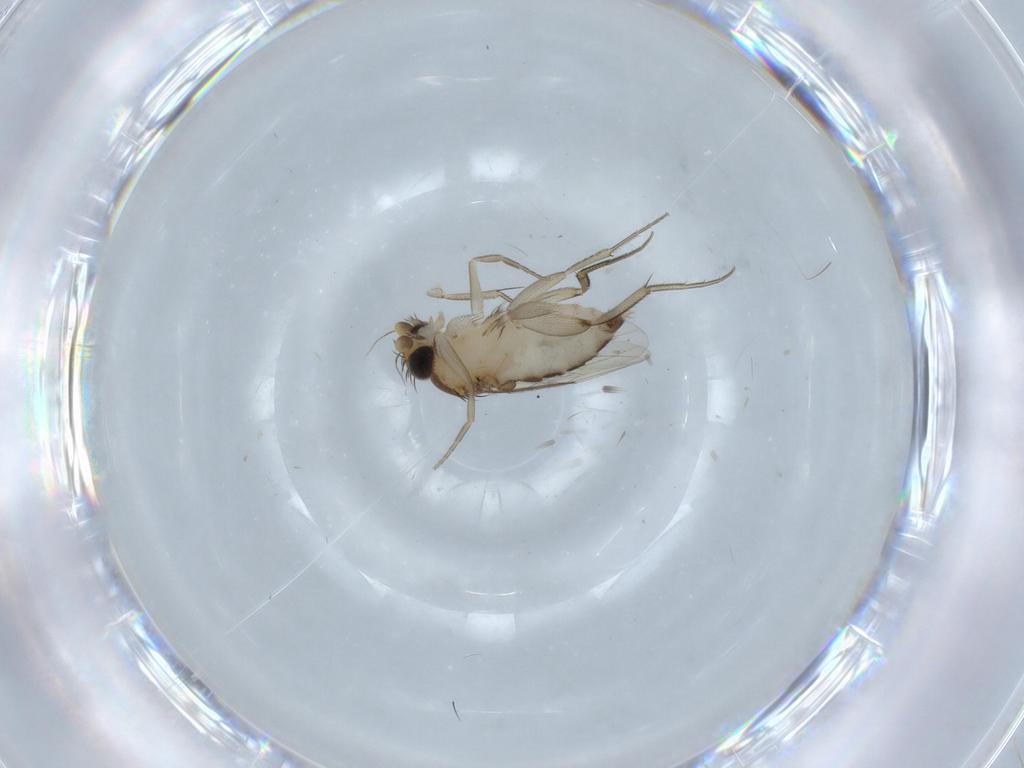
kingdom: Animalia
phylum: Arthropoda
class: Insecta
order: Diptera
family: Phoridae
